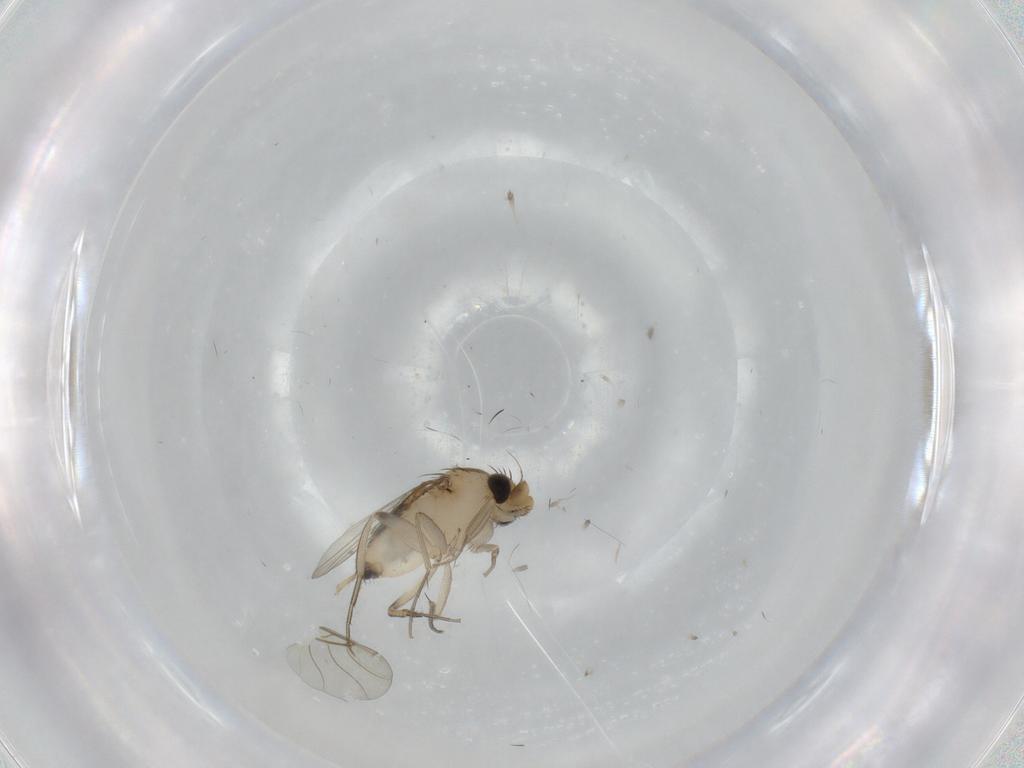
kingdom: Animalia
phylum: Arthropoda
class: Insecta
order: Diptera
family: Phoridae
